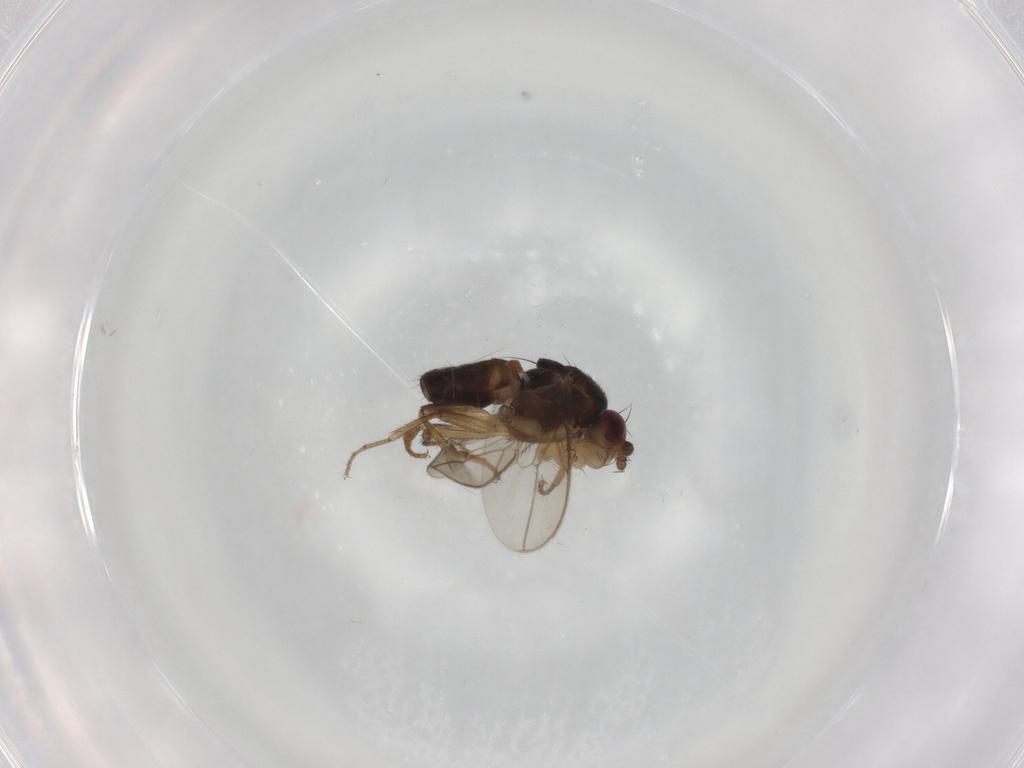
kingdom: Animalia
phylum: Arthropoda
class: Insecta
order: Diptera
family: Sphaeroceridae
